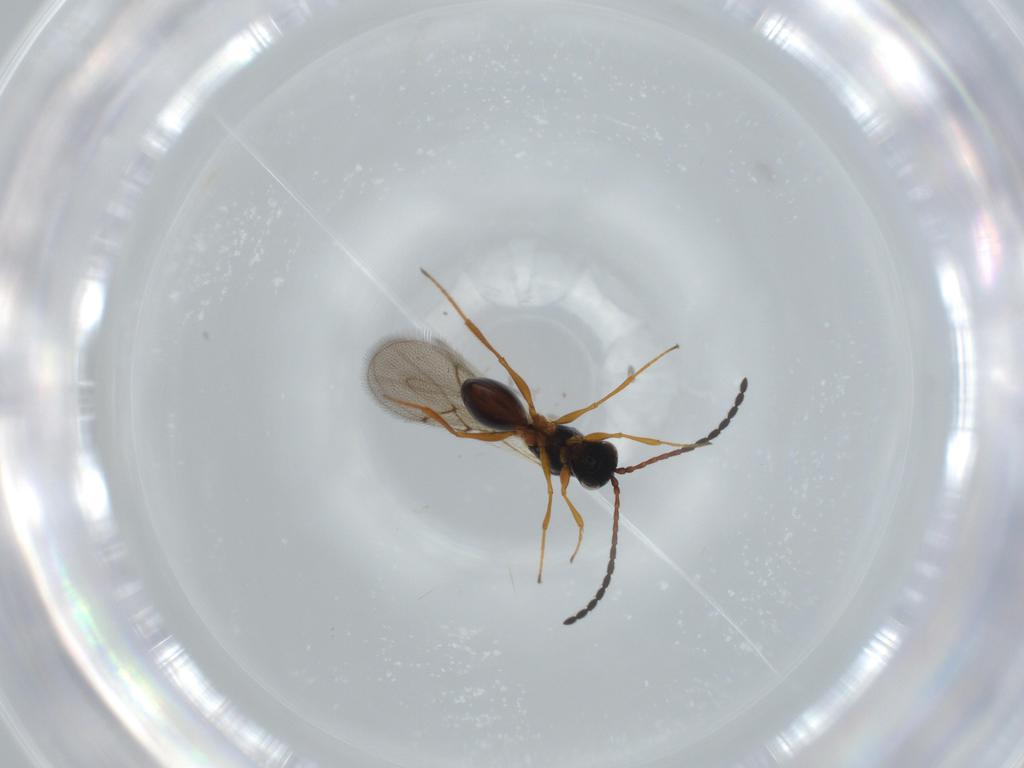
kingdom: Animalia
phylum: Arthropoda
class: Insecta
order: Hymenoptera
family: Figitidae
